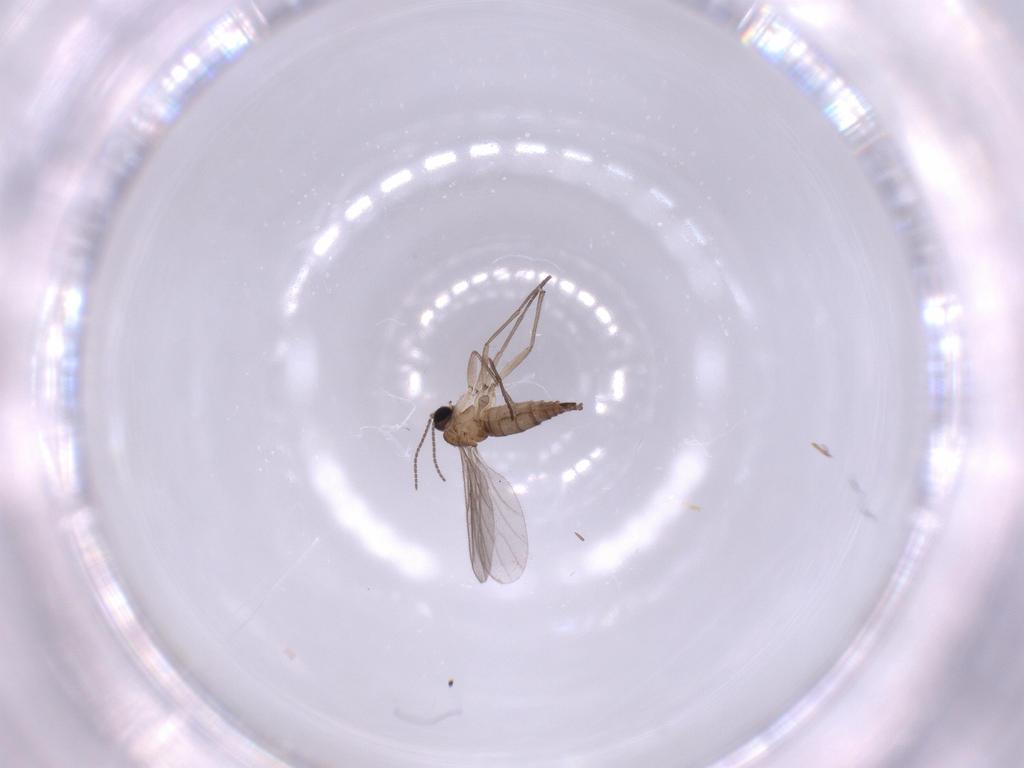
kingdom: Animalia
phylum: Arthropoda
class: Insecta
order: Diptera
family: Sciaridae
